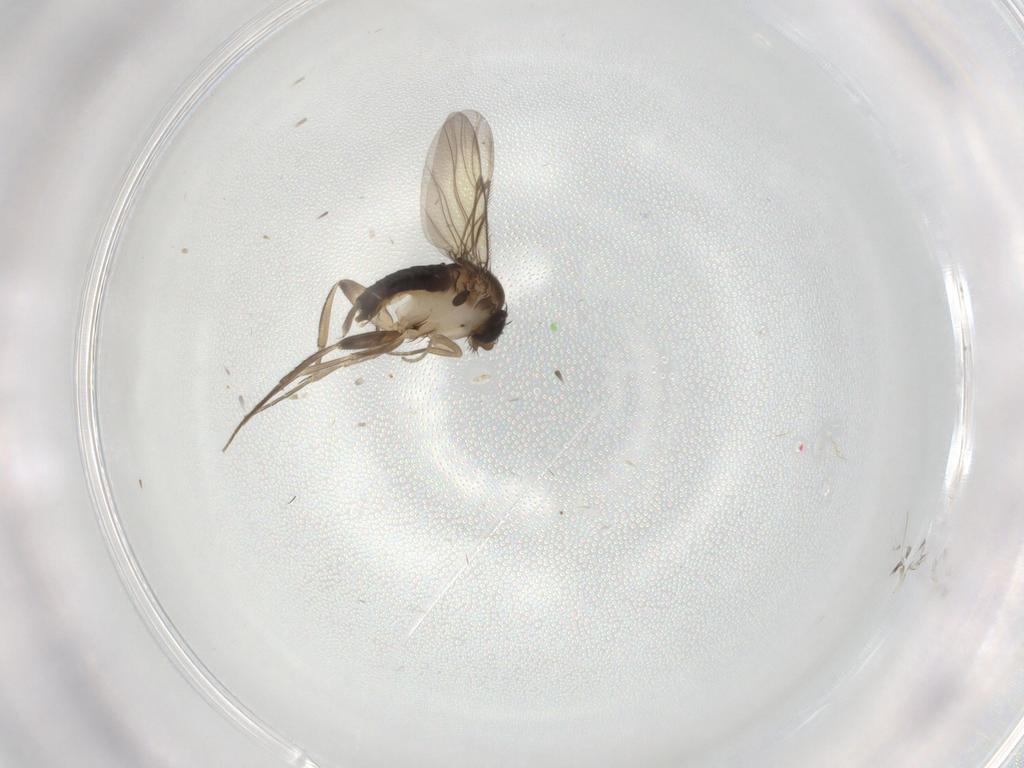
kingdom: Animalia
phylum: Arthropoda
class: Insecta
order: Diptera
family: Phoridae
